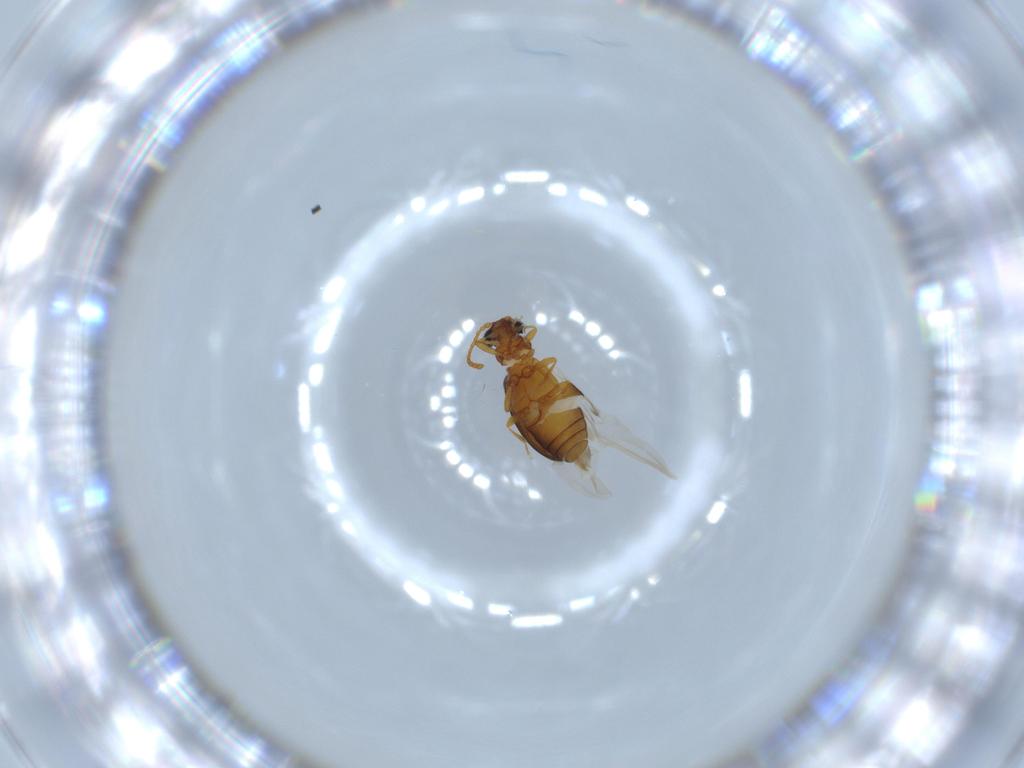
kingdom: Animalia
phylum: Arthropoda
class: Insecta
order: Coleoptera
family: Aderidae
